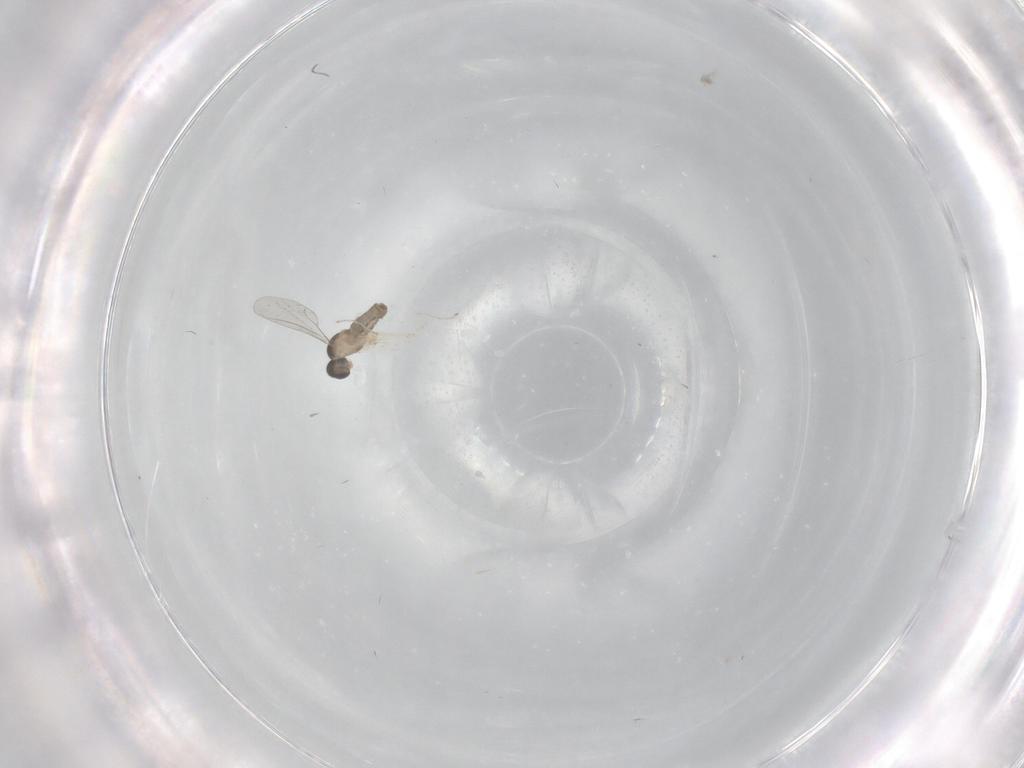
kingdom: Animalia
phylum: Arthropoda
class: Insecta
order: Diptera
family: Cecidomyiidae
